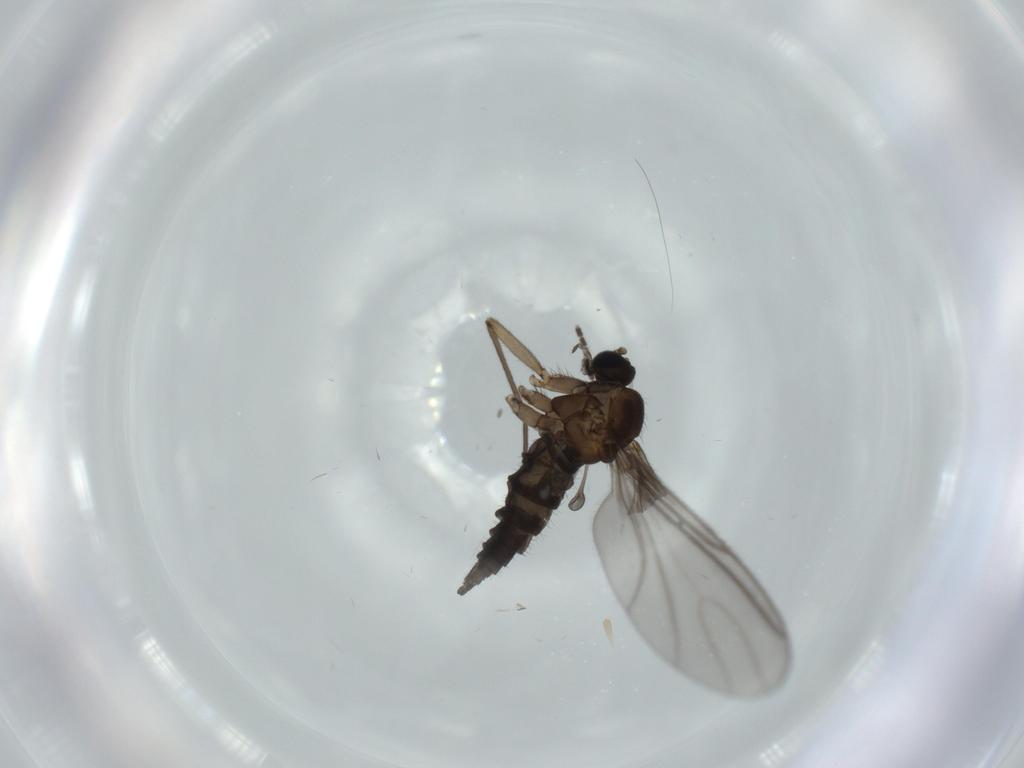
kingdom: Animalia
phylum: Arthropoda
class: Insecta
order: Diptera
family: Sciaridae
